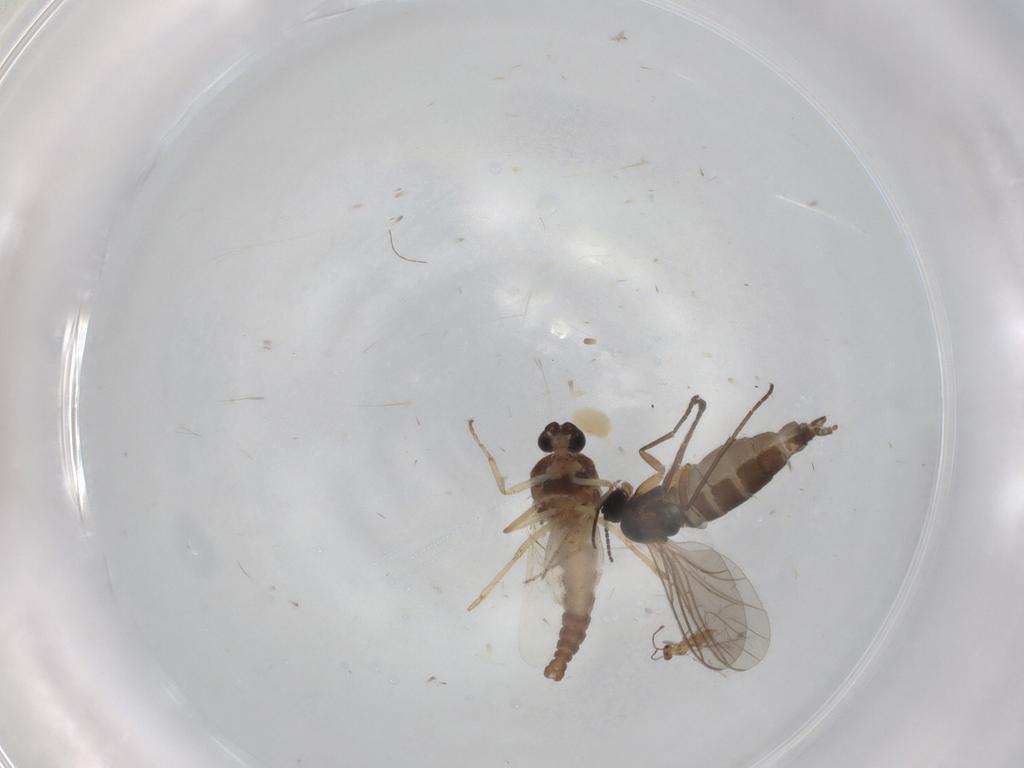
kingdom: Animalia
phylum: Arthropoda
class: Insecta
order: Diptera
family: Ceratopogonidae
